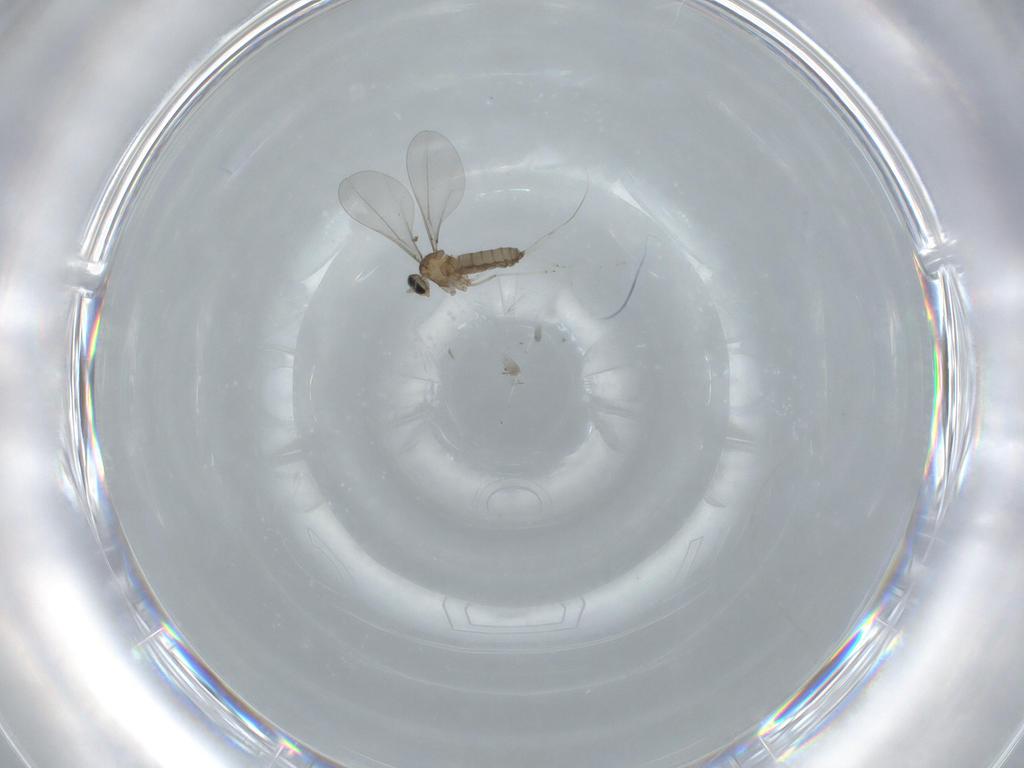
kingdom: Animalia
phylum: Arthropoda
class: Insecta
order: Diptera
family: Cecidomyiidae
